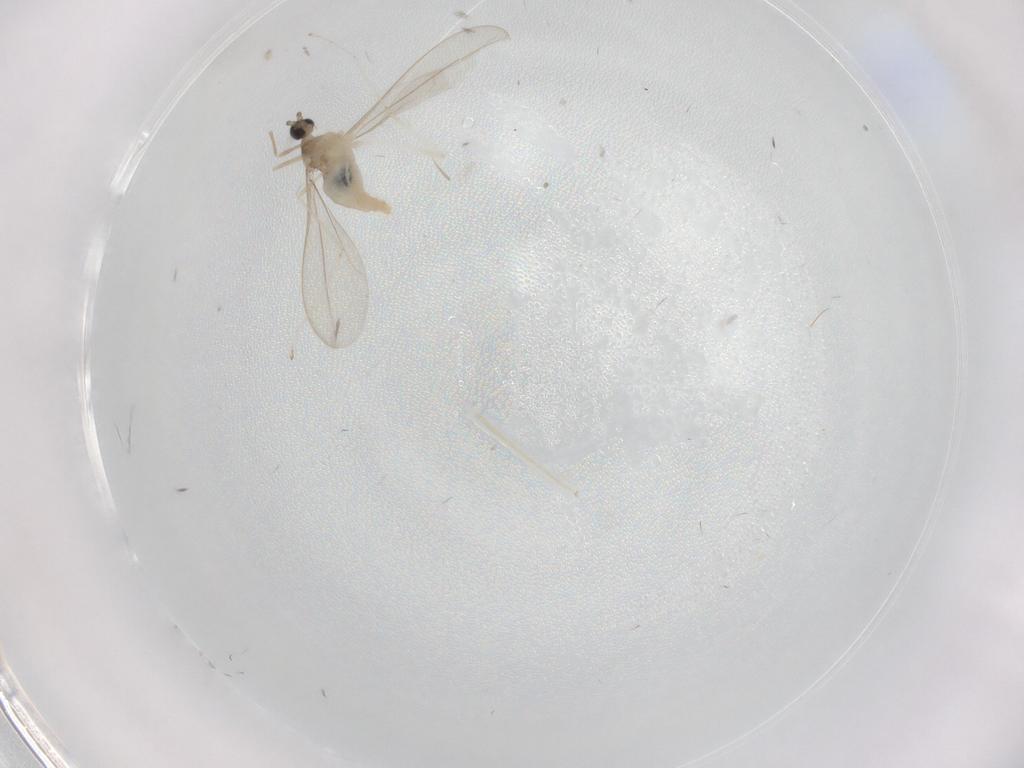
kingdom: Animalia
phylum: Arthropoda
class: Insecta
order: Diptera
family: Cecidomyiidae
